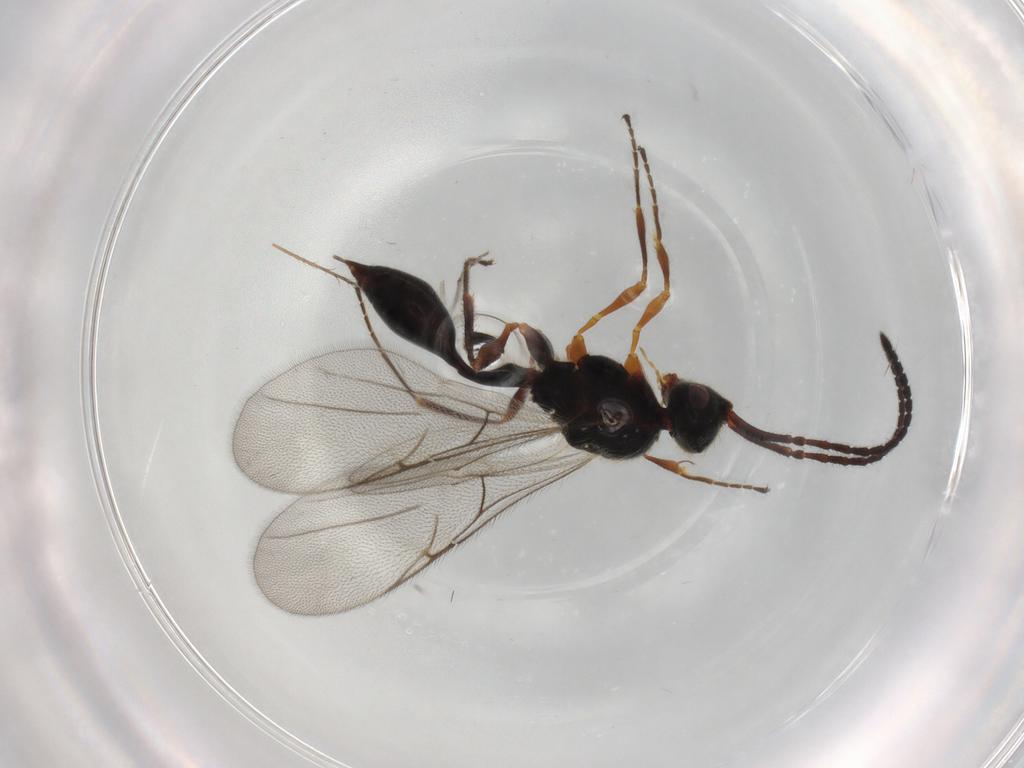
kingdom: Animalia
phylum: Arthropoda
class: Insecta
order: Hymenoptera
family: Diapriidae
